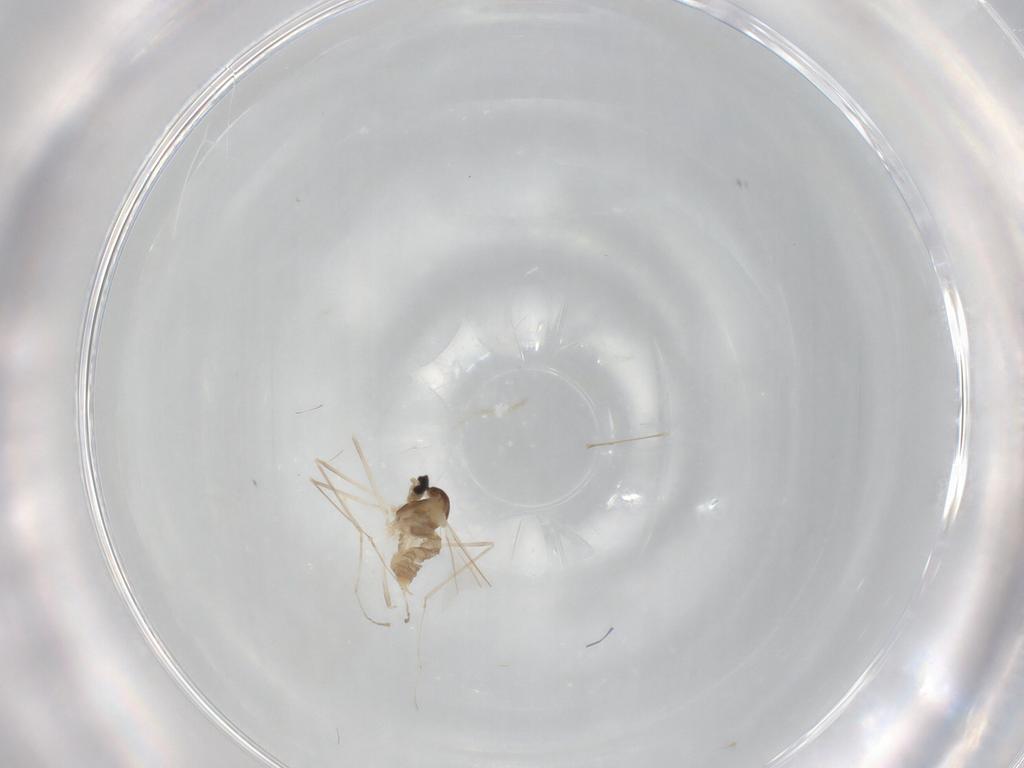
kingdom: Animalia
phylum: Arthropoda
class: Insecta
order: Diptera
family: Cecidomyiidae
